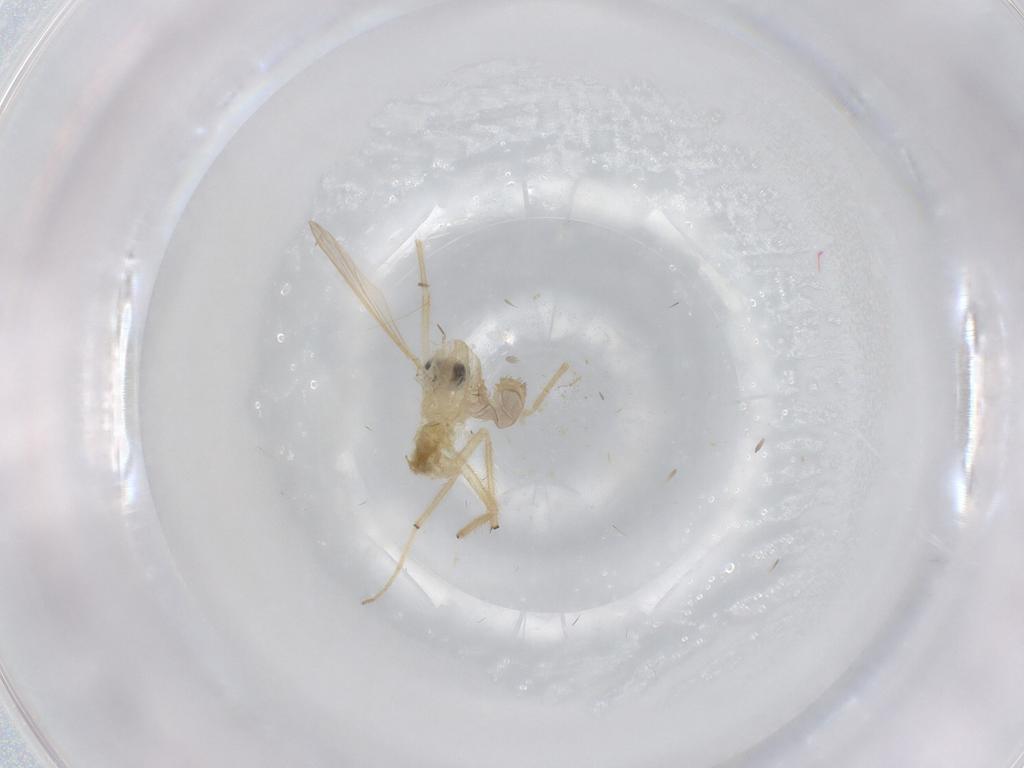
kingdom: Animalia
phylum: Arthropoda
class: Insecta
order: Diptera
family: Chironomidae
